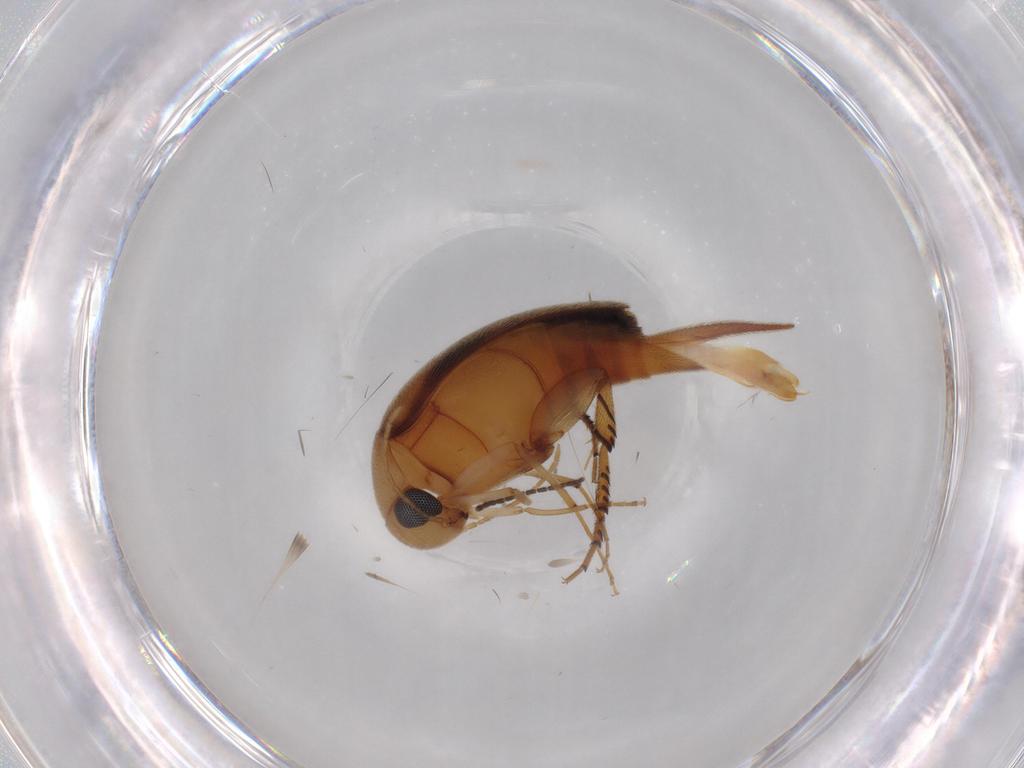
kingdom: Animalia
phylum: Arthropoda
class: Insecta
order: Coleoptera
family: Mordellidae
